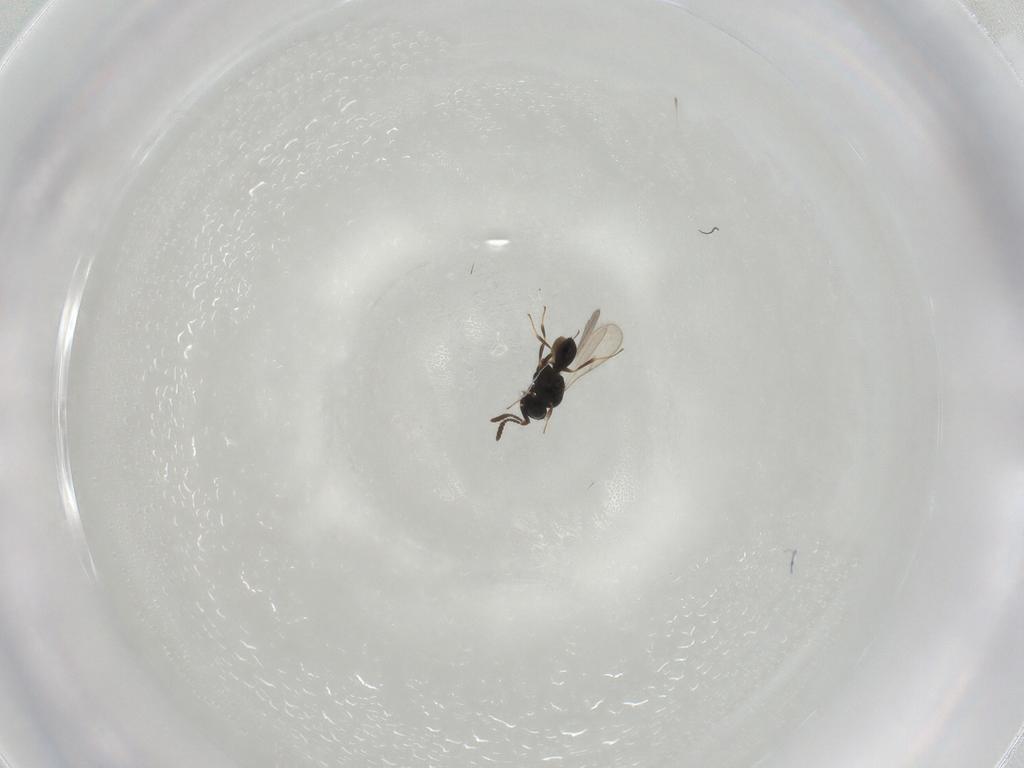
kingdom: Animalia
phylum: Arthropoda
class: Insecta
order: Hymenoptera
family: Scelionidae
